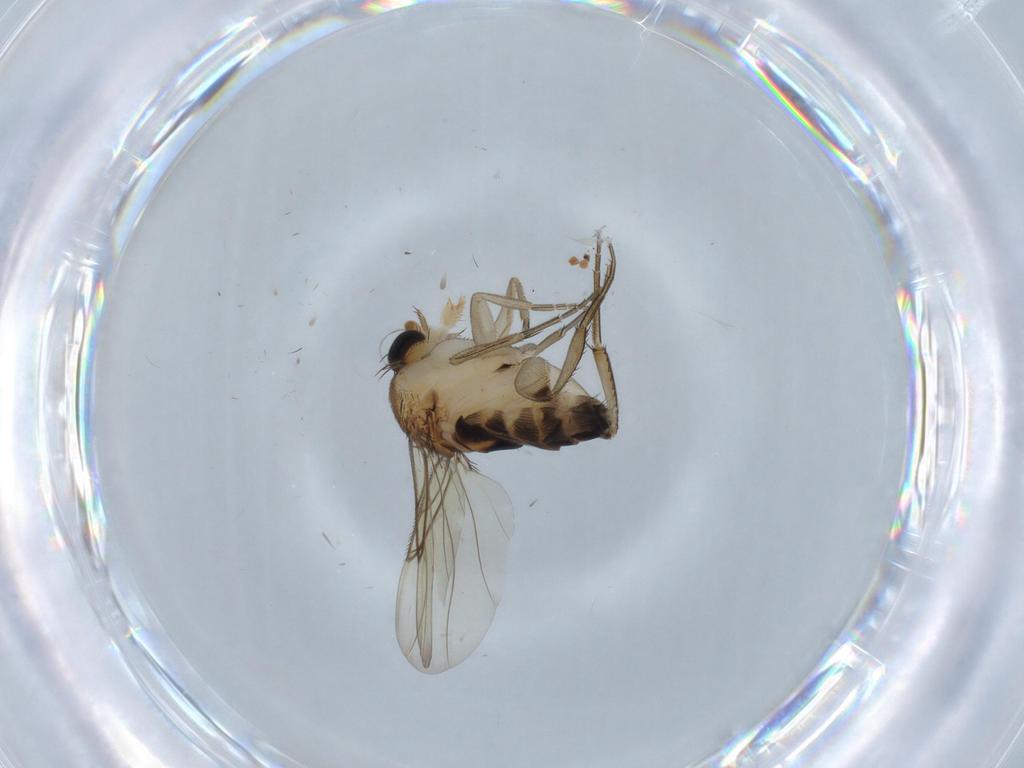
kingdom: Animalia
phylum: Arthropoda
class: Insecta
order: Diptera
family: Phoridae
